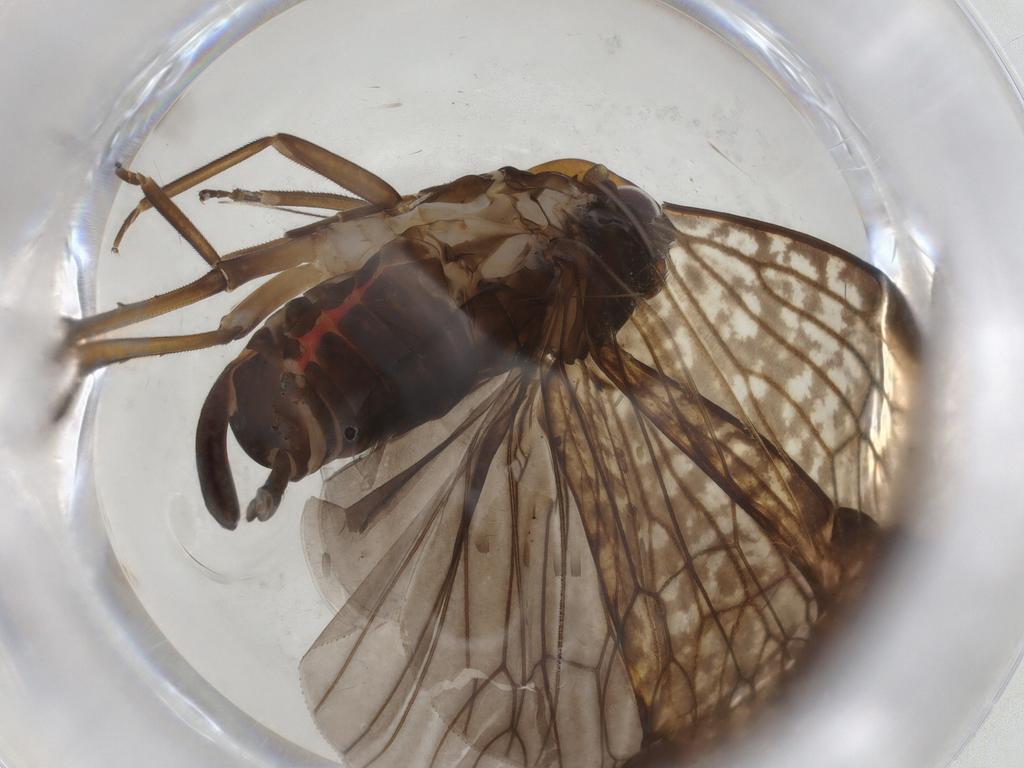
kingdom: Animalia
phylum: Arthropoda
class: Insecta
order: Hemiptera
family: Cixiidae
